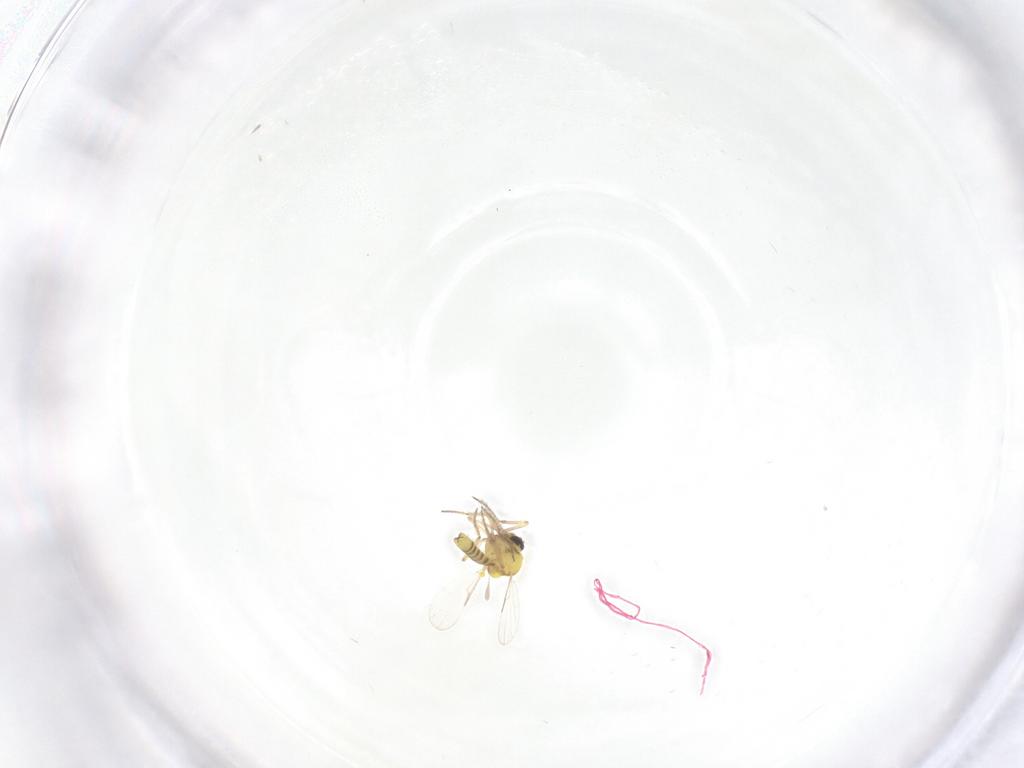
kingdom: Animalia
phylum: Arthropoda
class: Insecta
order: Diptera
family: Ceratopogonidae
